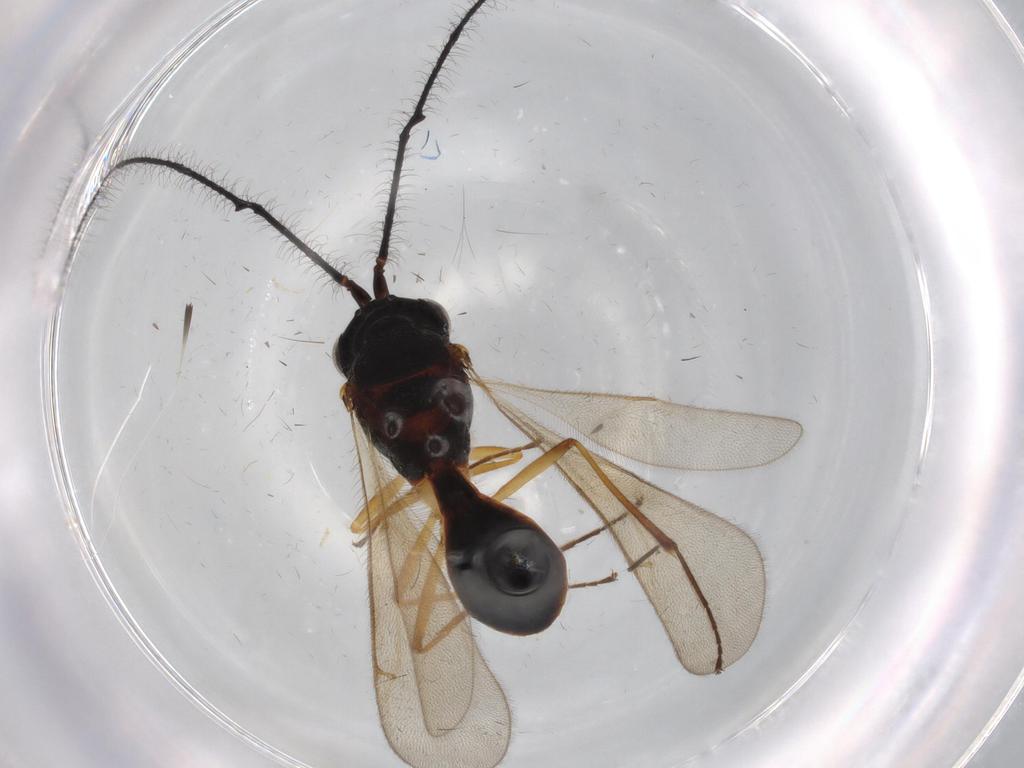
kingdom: Animalia
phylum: Arthropoda
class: Insecta
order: Hymenoptera
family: Scelionidae
